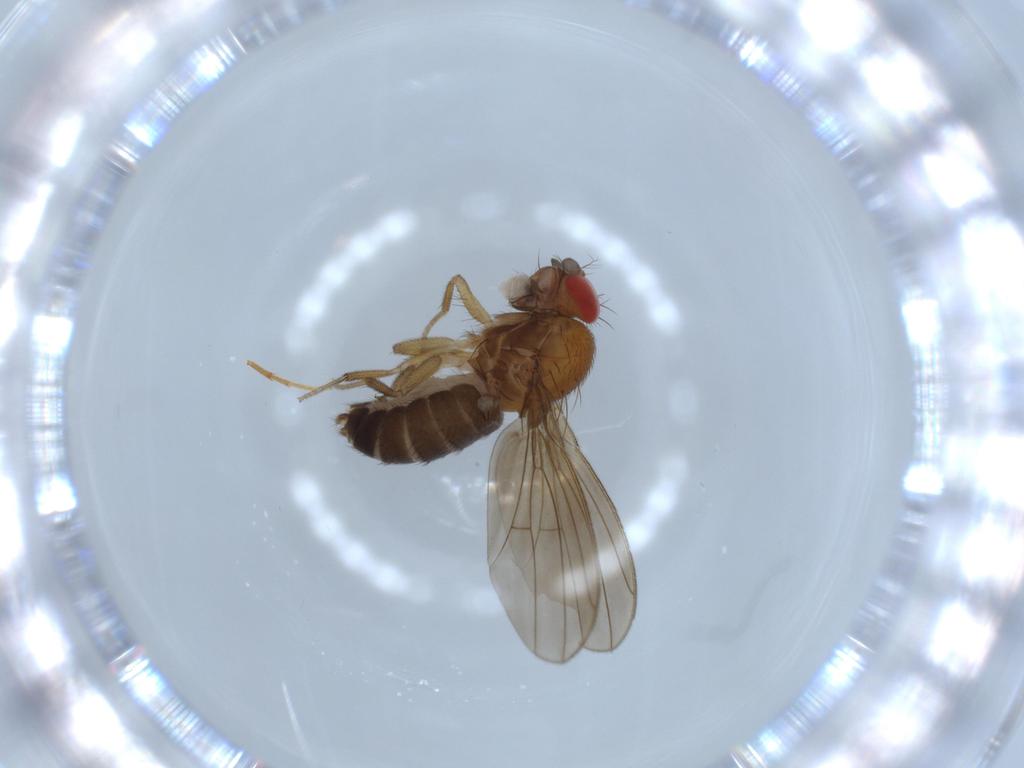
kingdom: Animalia
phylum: Arthropoda
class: Insecta
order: Diptera
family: Drosophilidae
